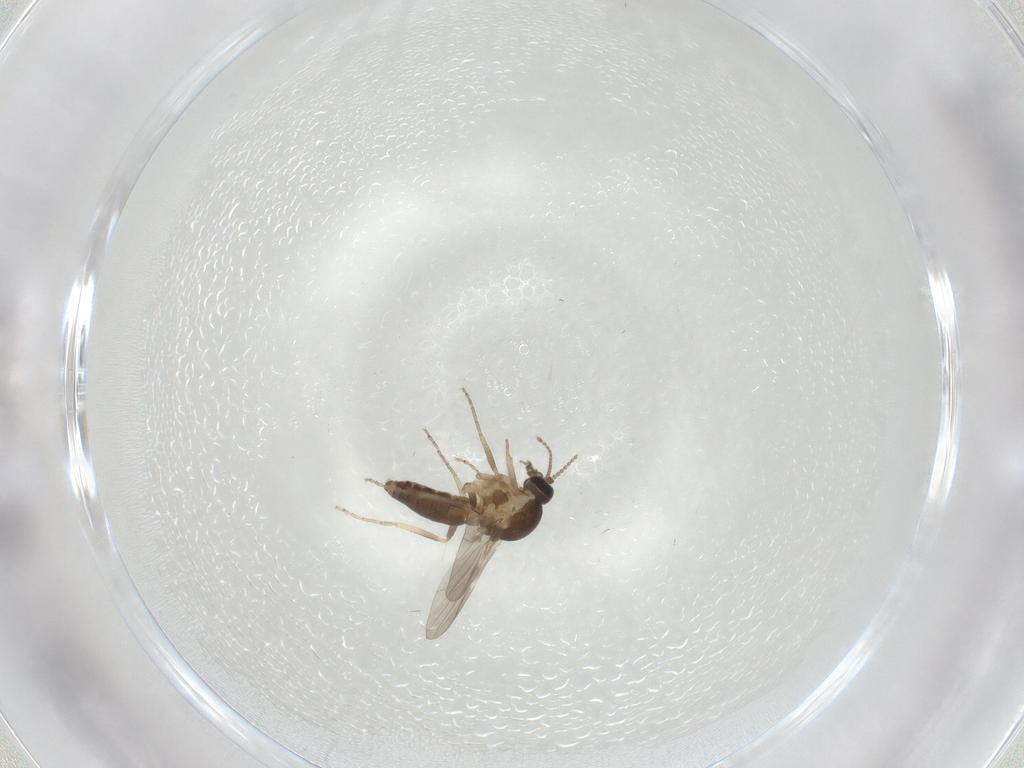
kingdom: Animalia
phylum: Arthropoda
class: Insecta
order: Diptera
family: Ceratopogonidae
